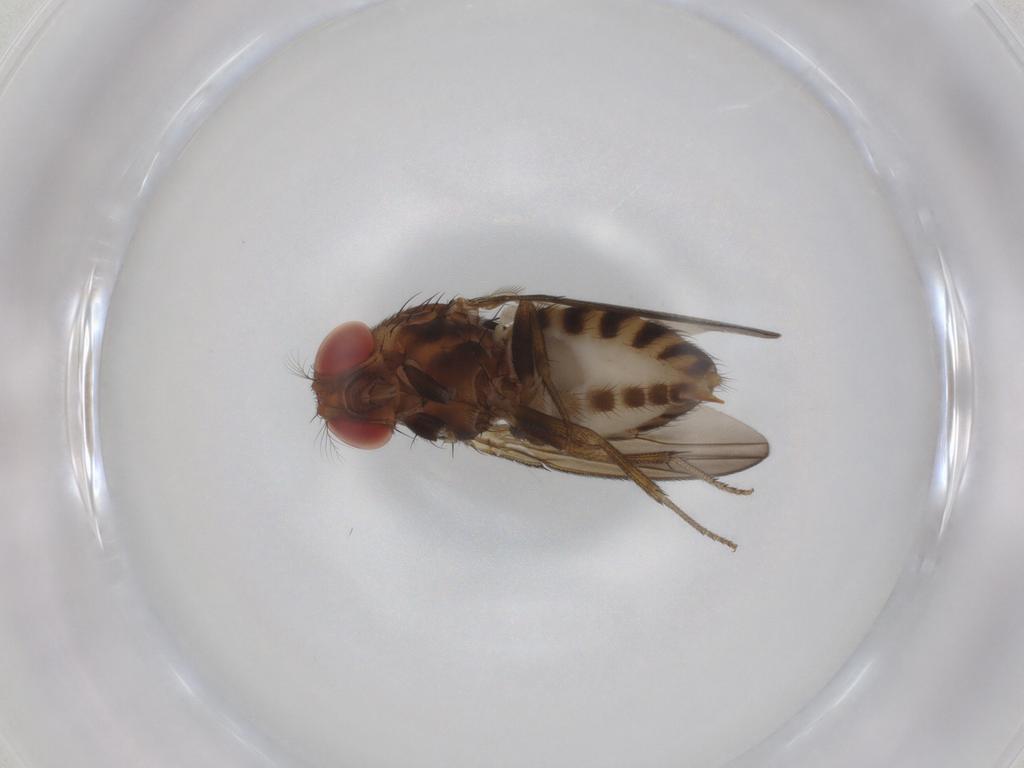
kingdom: Animalia
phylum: Arthropoda
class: Insecta
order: Diptera
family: Drosophilidae
